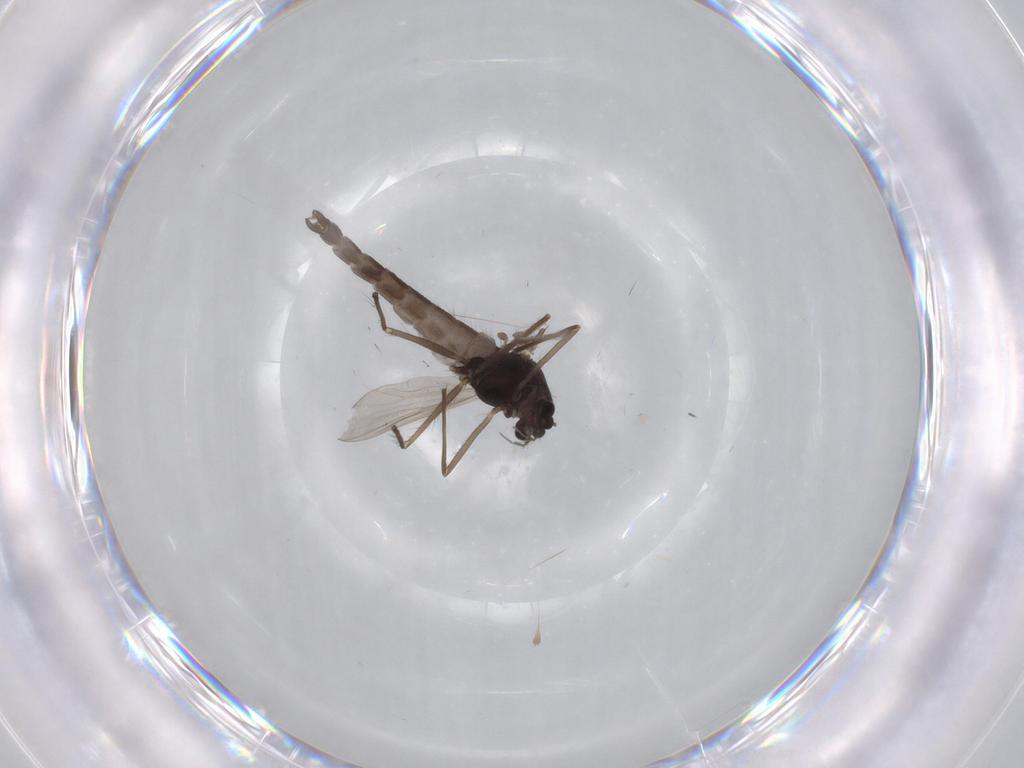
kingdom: Animalia
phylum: Arthropoda
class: Insecta
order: Diptera
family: Chironomidae
